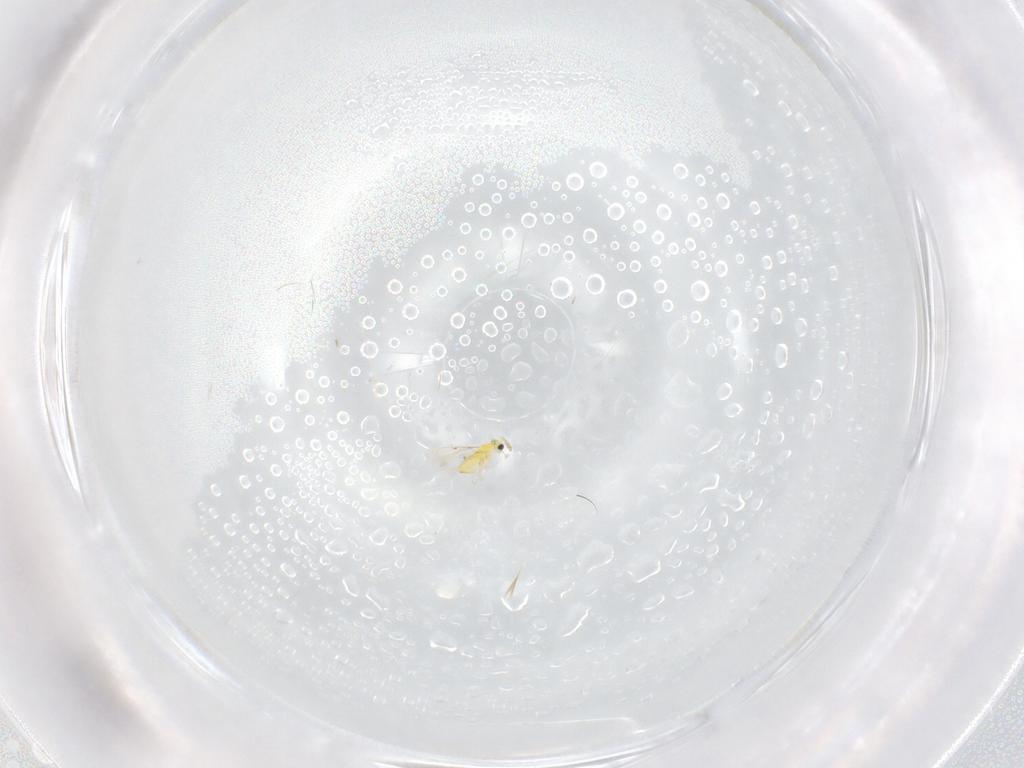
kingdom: Animalia
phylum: Arthropoda
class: Insecta
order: Hymenoptera
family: Trichogrammatidae
